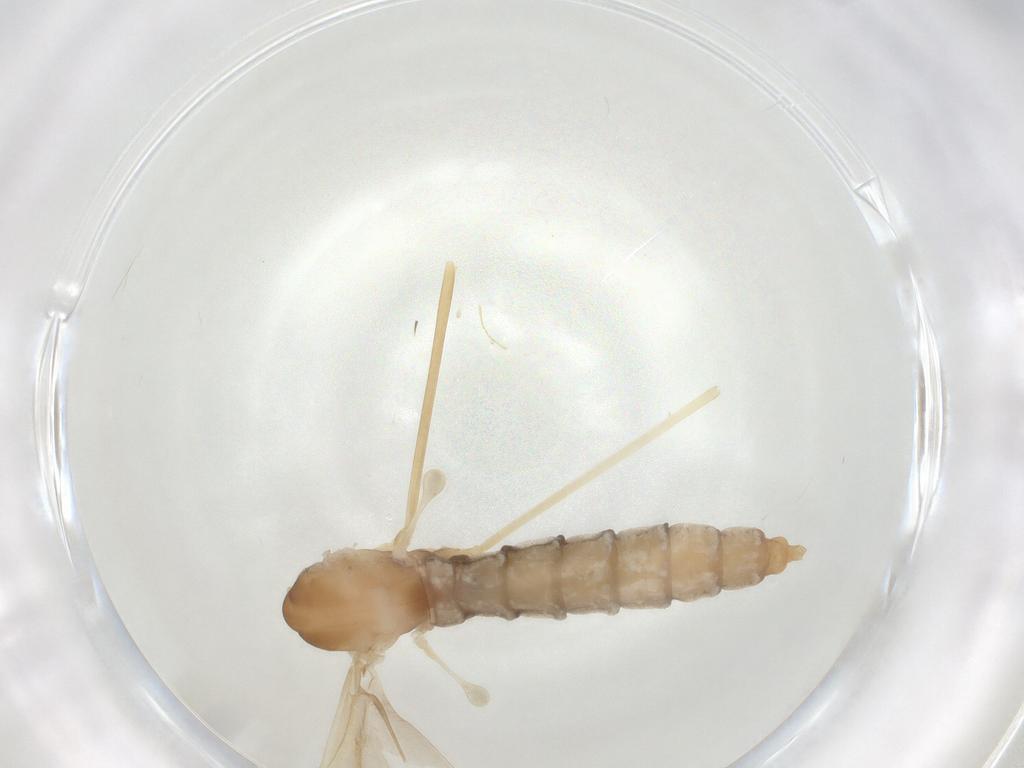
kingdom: Animalia
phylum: Arthropoda
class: Insecta
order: Diptera
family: Cecidomyiidae
